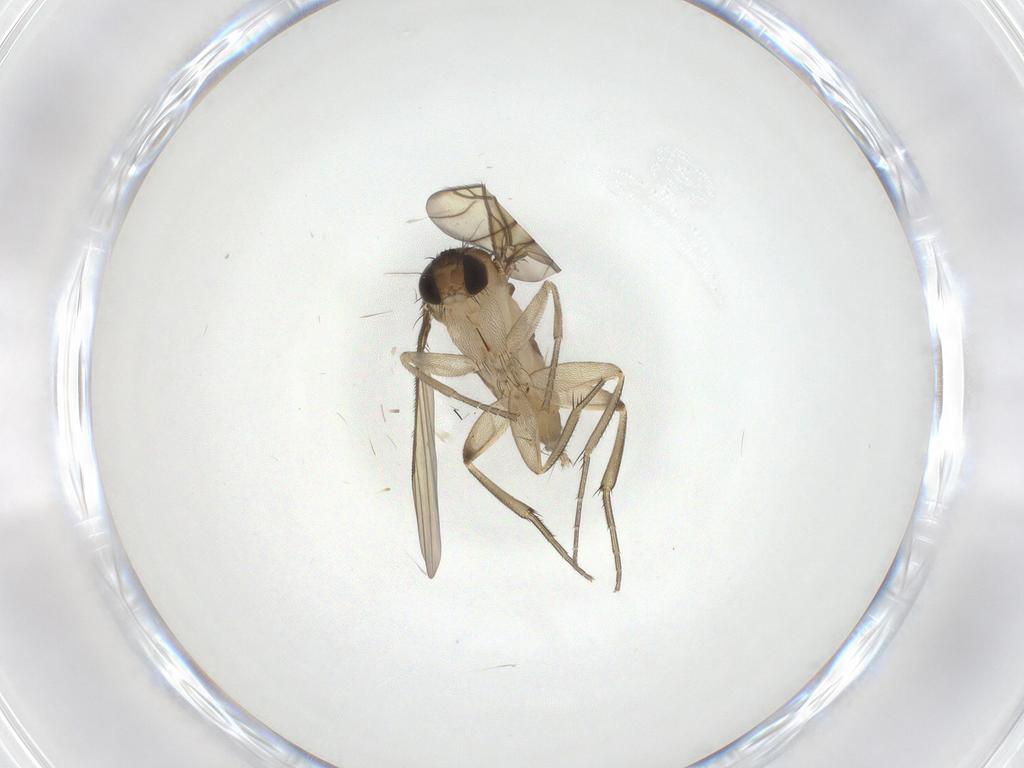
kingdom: Animalia
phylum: Arthropoda
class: Insecta
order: Diptera
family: Phoridae
